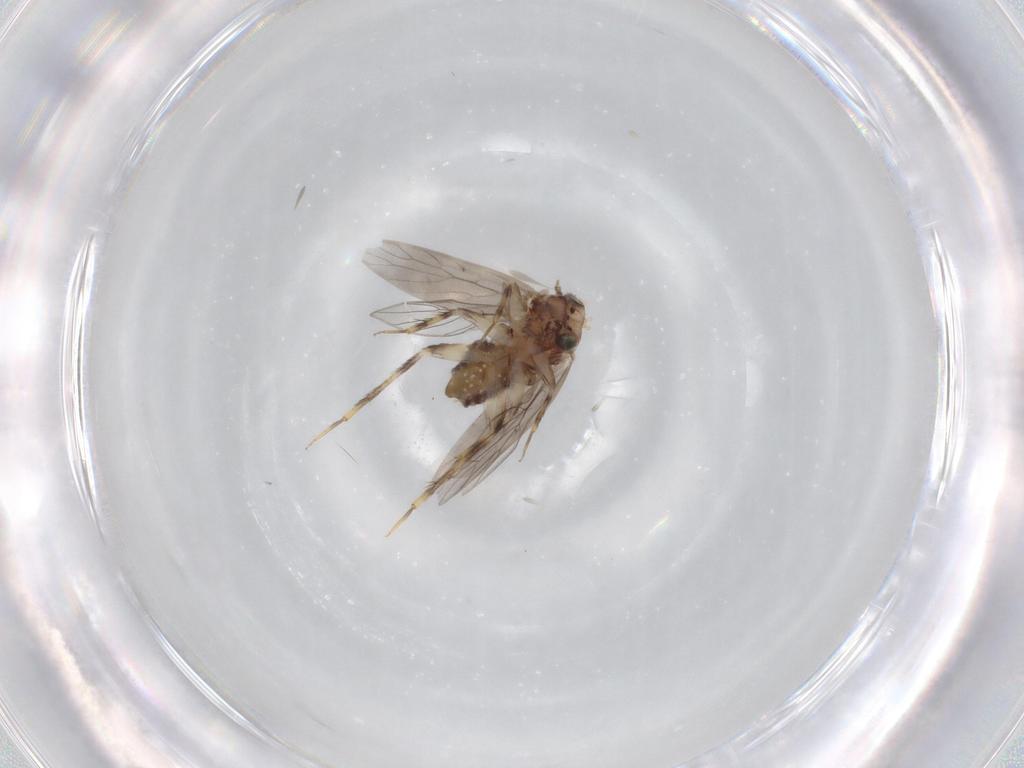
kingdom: Animalia
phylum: Arthropoda
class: Insecta
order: Psocodea
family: Lepidopsocidae
